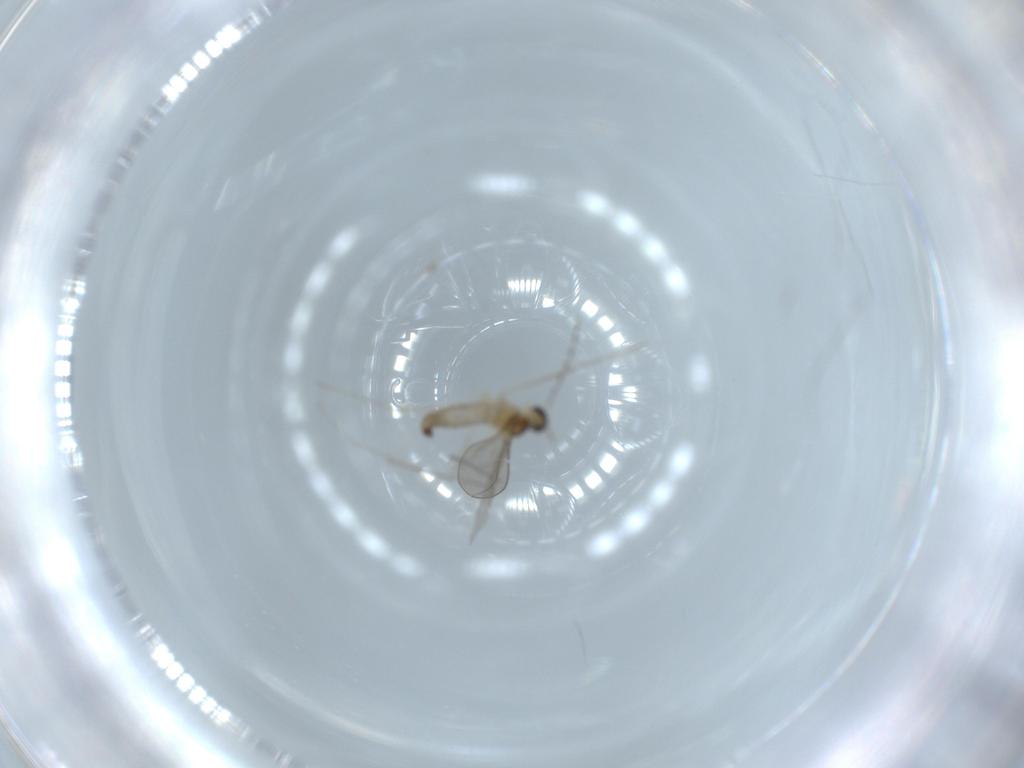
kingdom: Animalia
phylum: Arthropoda
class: Insecta
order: Diptera
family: Cecidomyiidae
